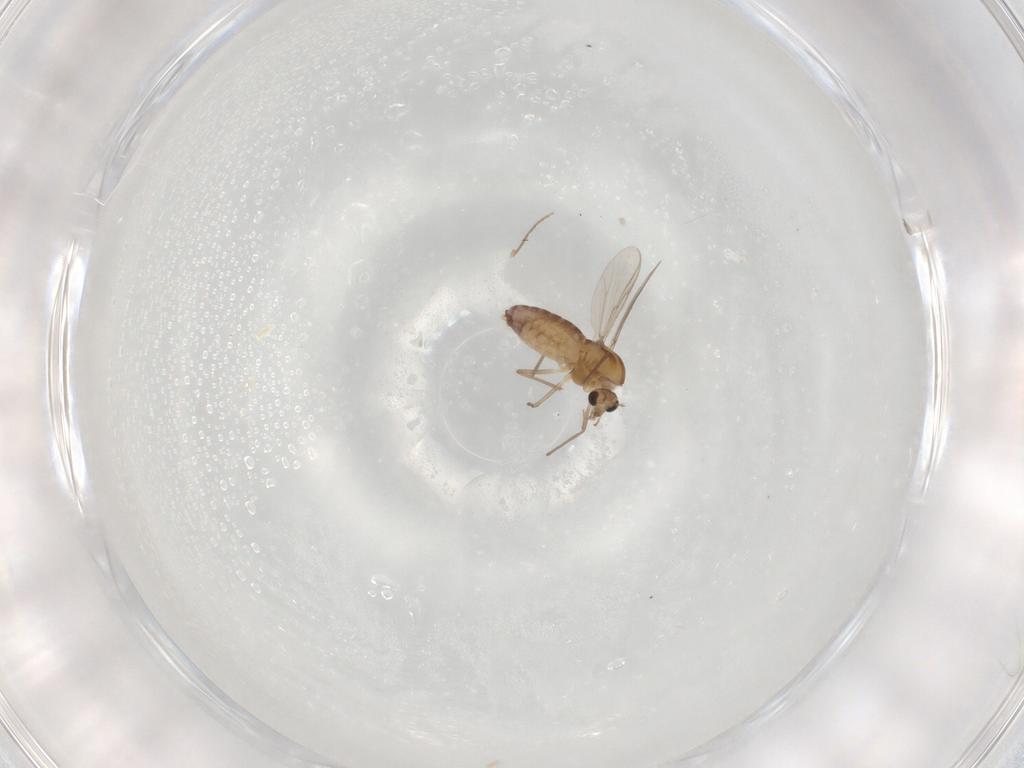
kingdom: Animalia
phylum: Arthropoda
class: Insecta
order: Diptera
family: Chironomidae
